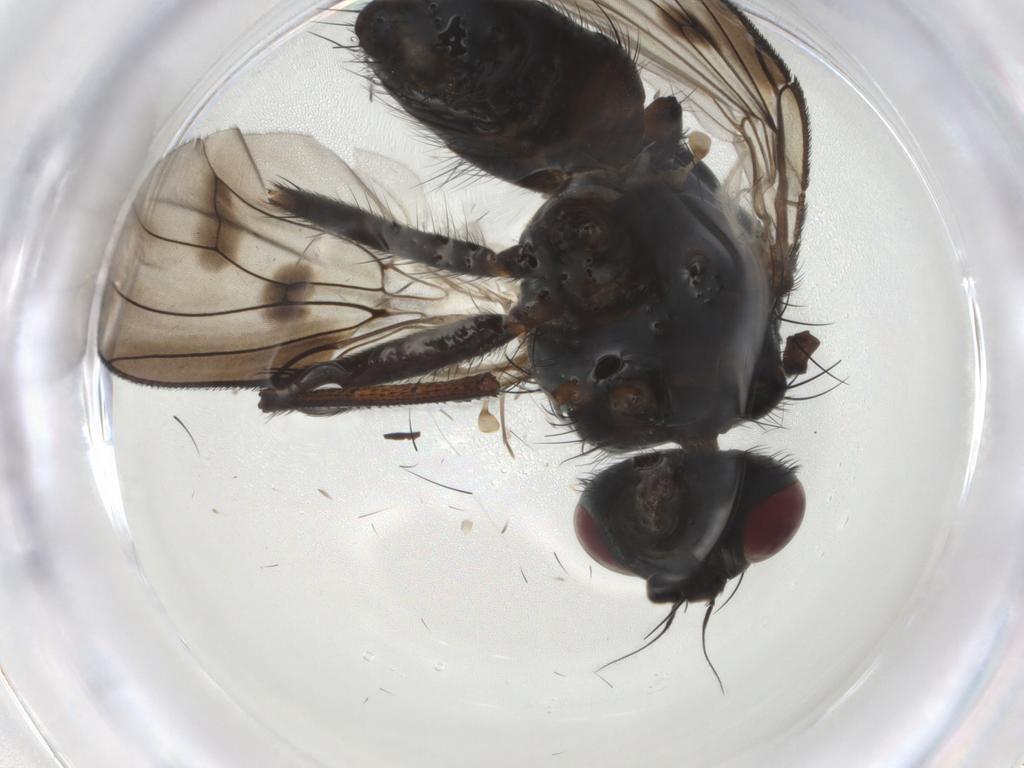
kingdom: Animalia
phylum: Arthropoda
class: Insecta
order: Diptera
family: Muscidae
